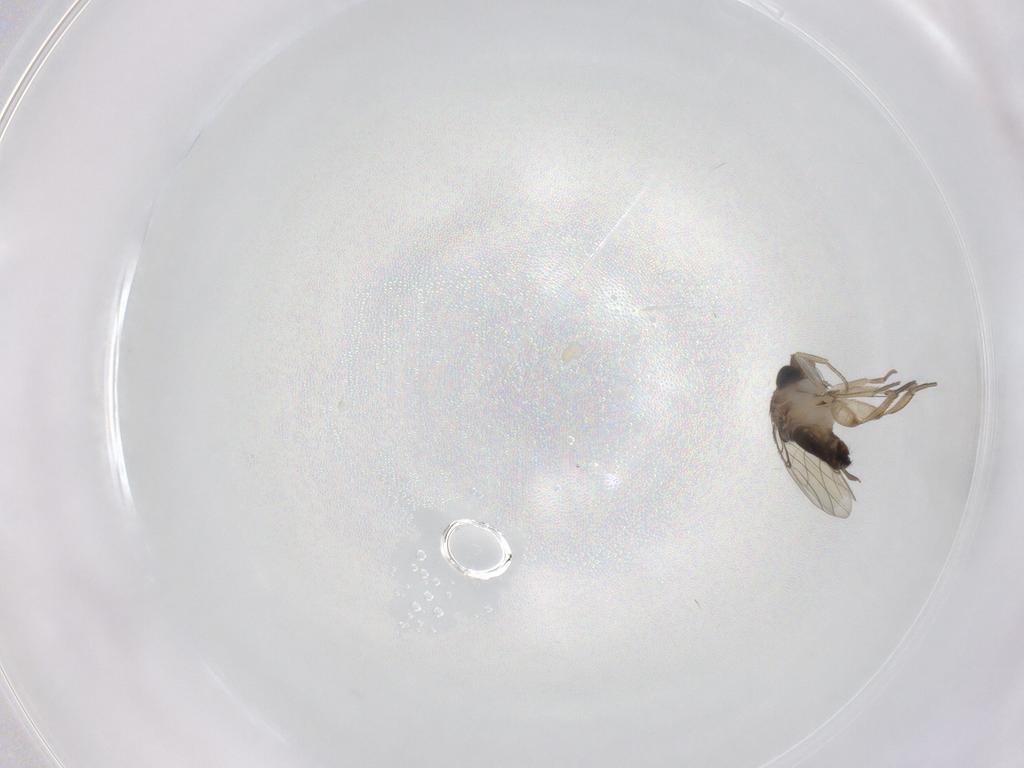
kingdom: Animalia
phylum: Arthropoda
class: Insecta
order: Diptera
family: Phoridae
